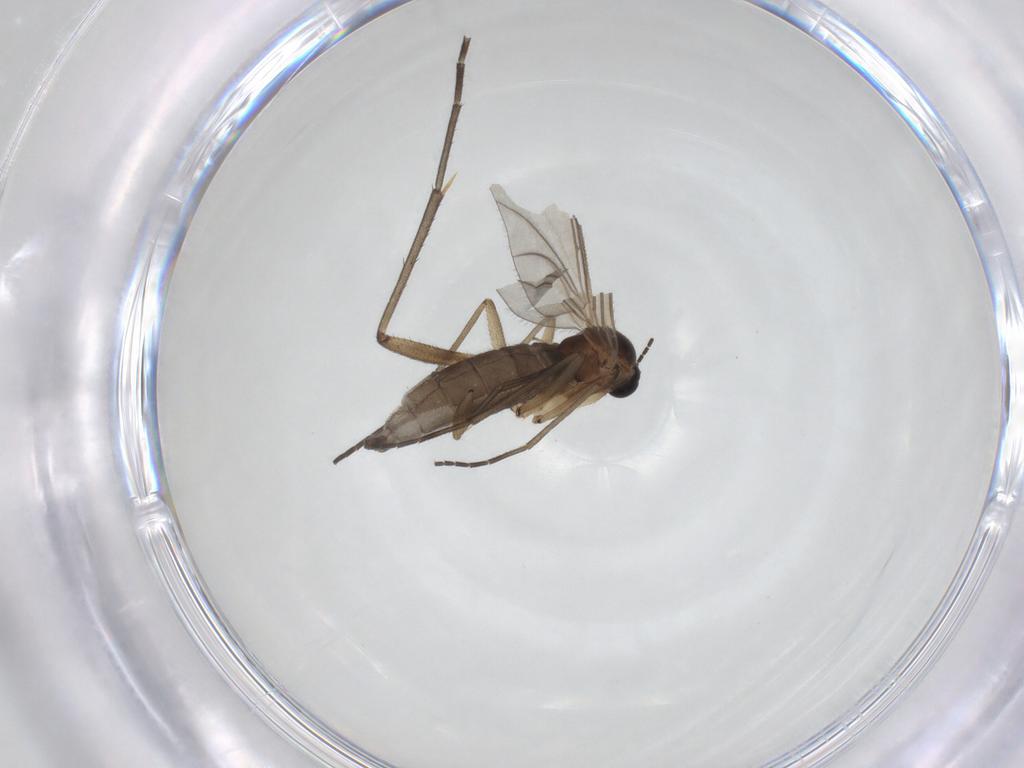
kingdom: Animalia
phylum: Arthropoda
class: Insecta
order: Diptera
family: Sciaridae
